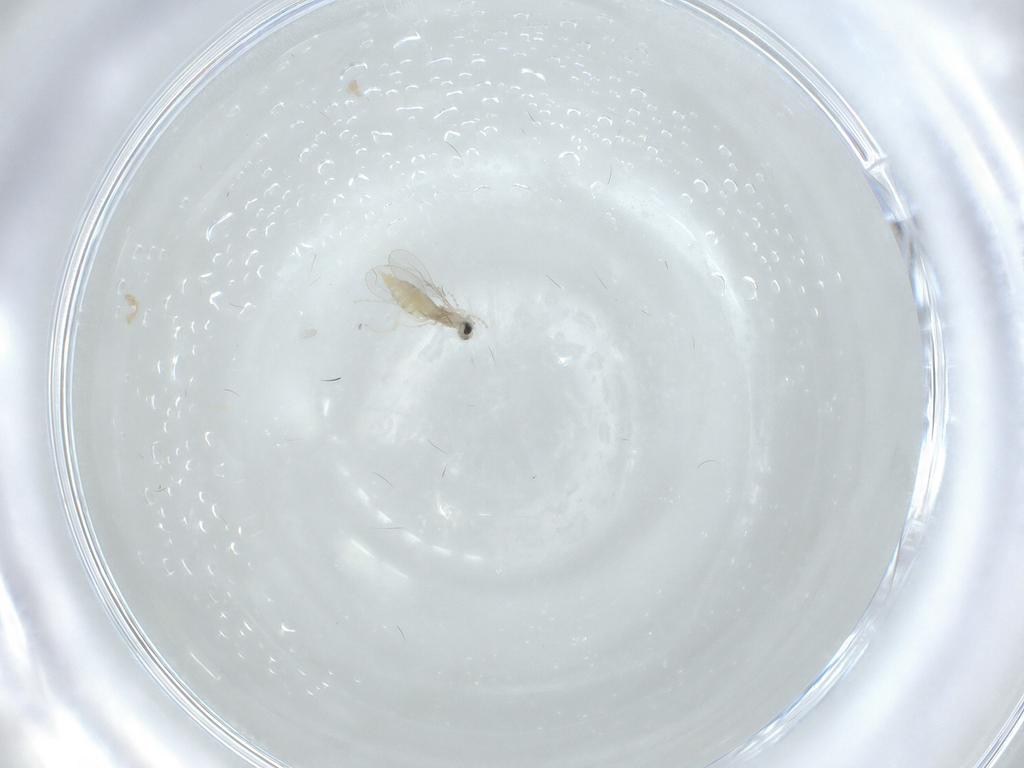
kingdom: Animalia
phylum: Arthropoda
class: Insecta
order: Diptera
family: Cecidomyiidae
